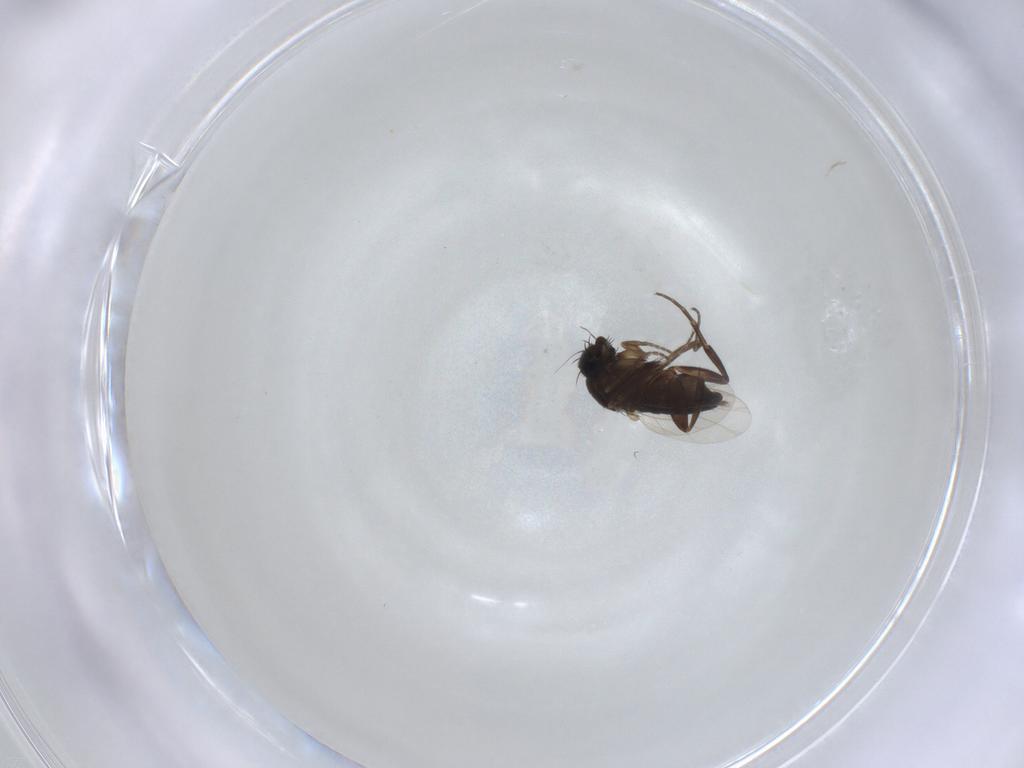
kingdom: Animalia
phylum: Arthropoda
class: Insecta
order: Diptera
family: Phoridae
